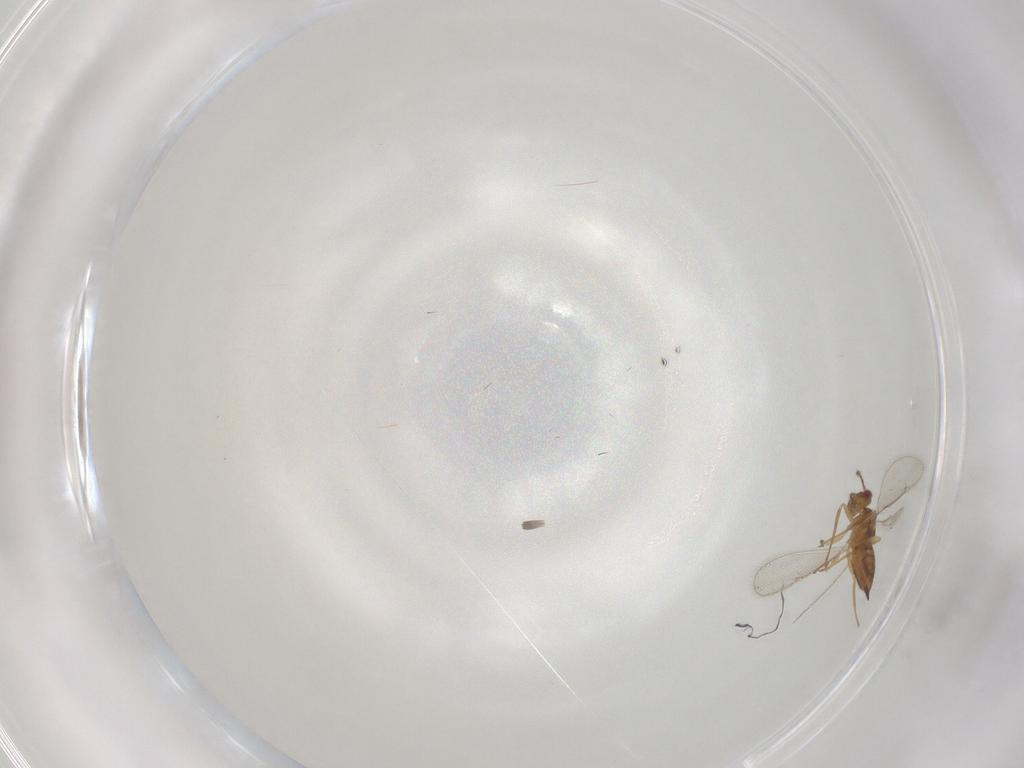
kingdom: Animalia
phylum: Arthropoda
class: Insecta
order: Hymenoptera
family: Eulophidae
